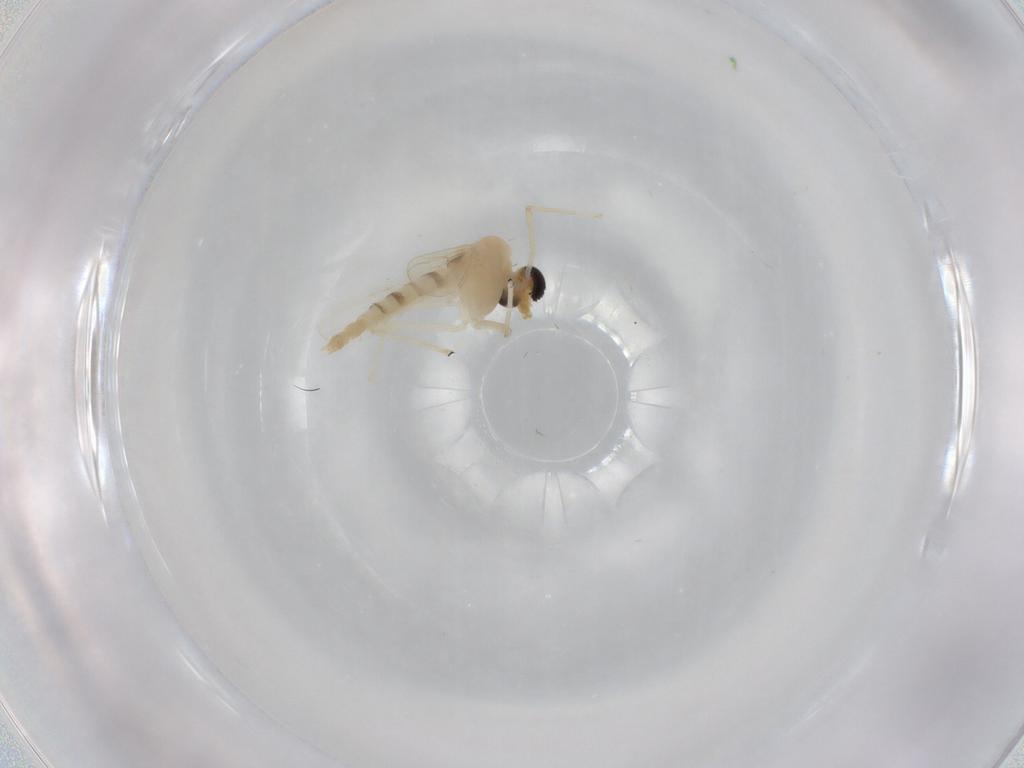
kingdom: Animalia
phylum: Arthropoda
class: Insecta
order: Diptera
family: Chironomidae
